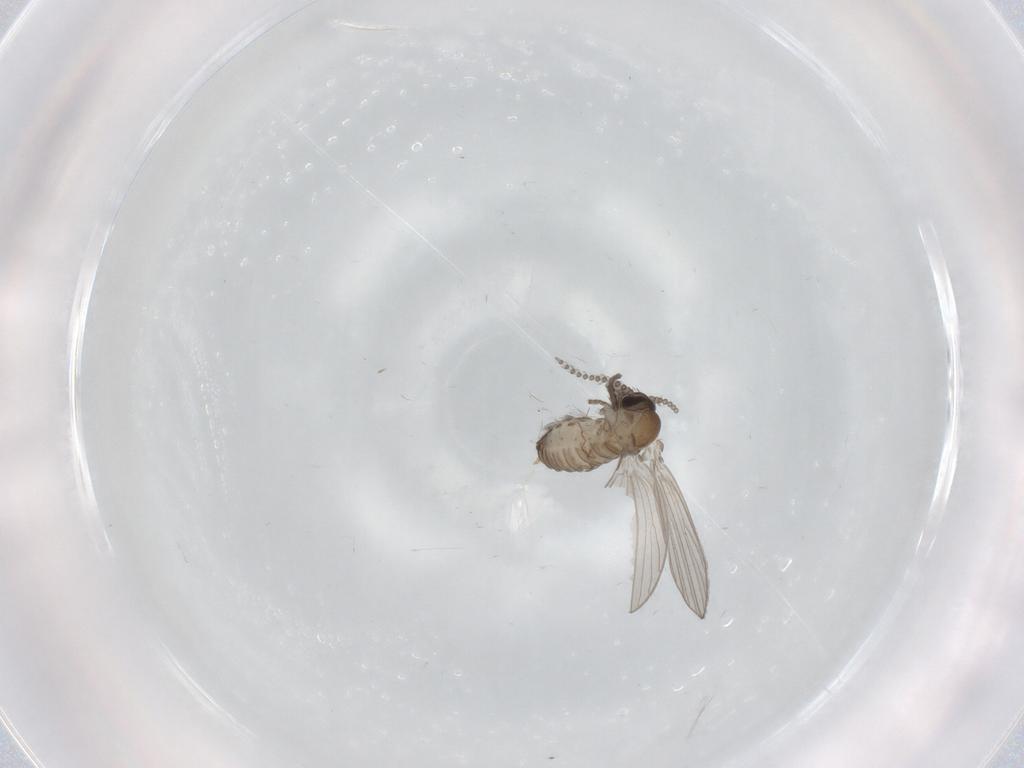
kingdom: Animalia
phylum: Arthropoda
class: Insecta
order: Diptera
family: Psychodidae
